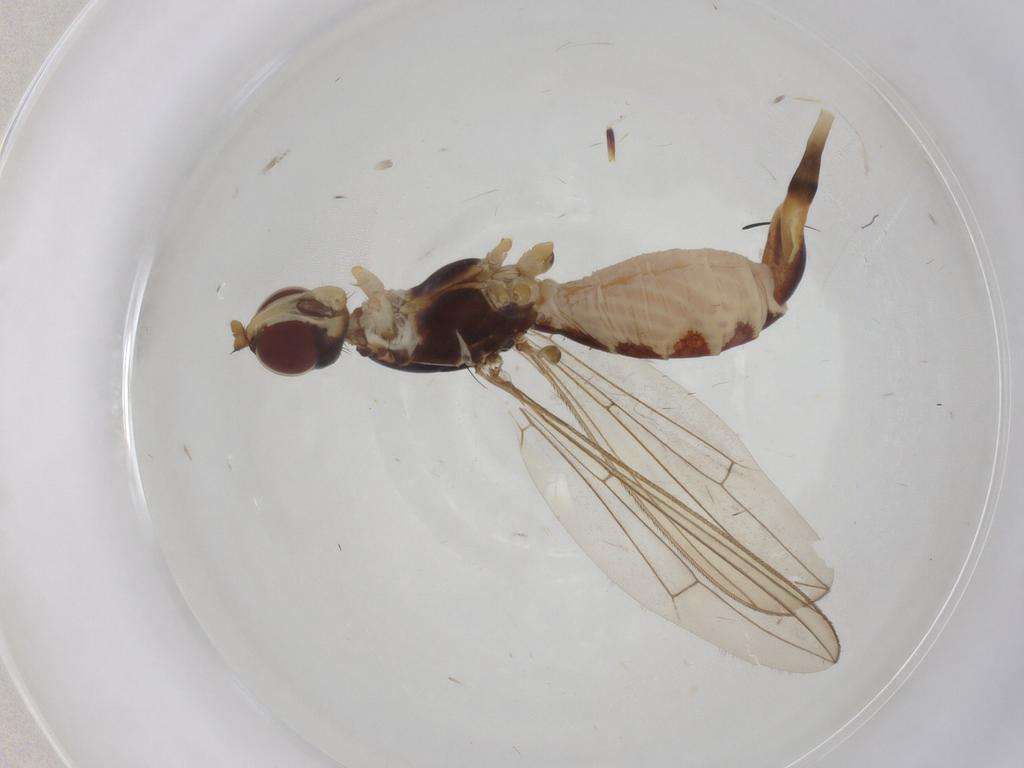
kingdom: Animalia
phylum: Arthropoda
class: Insecta
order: Diptera
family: Micropezidae
